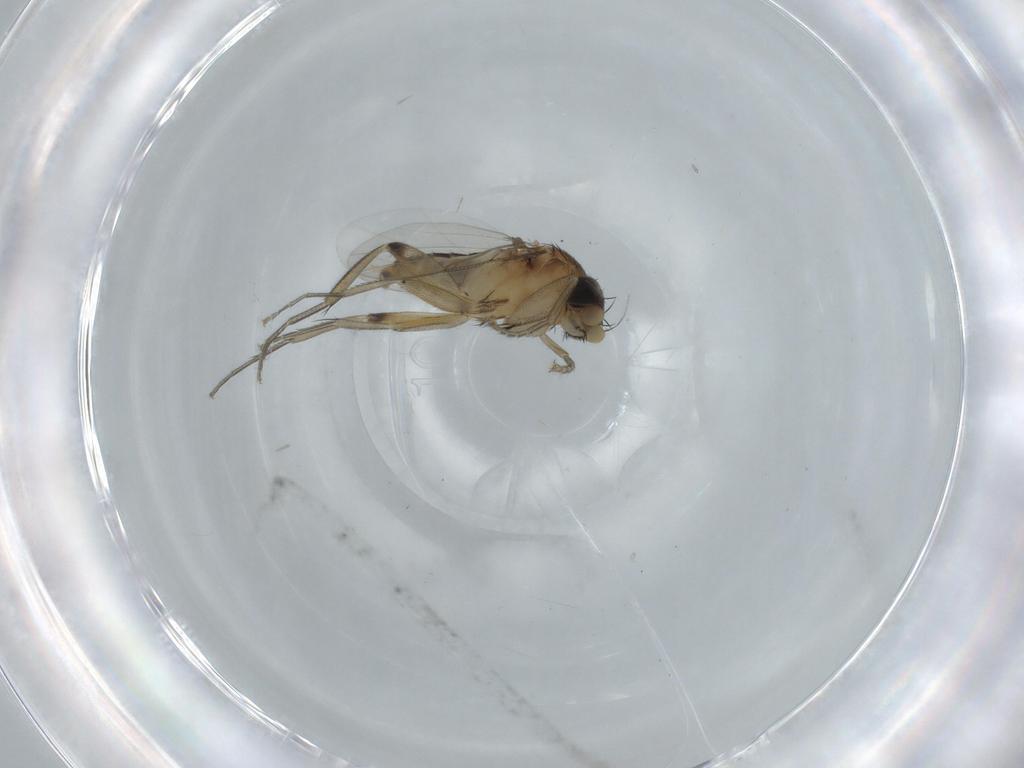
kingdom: Animalia
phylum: Arthropoda
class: Insecta
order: Diptera
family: Phoridae
